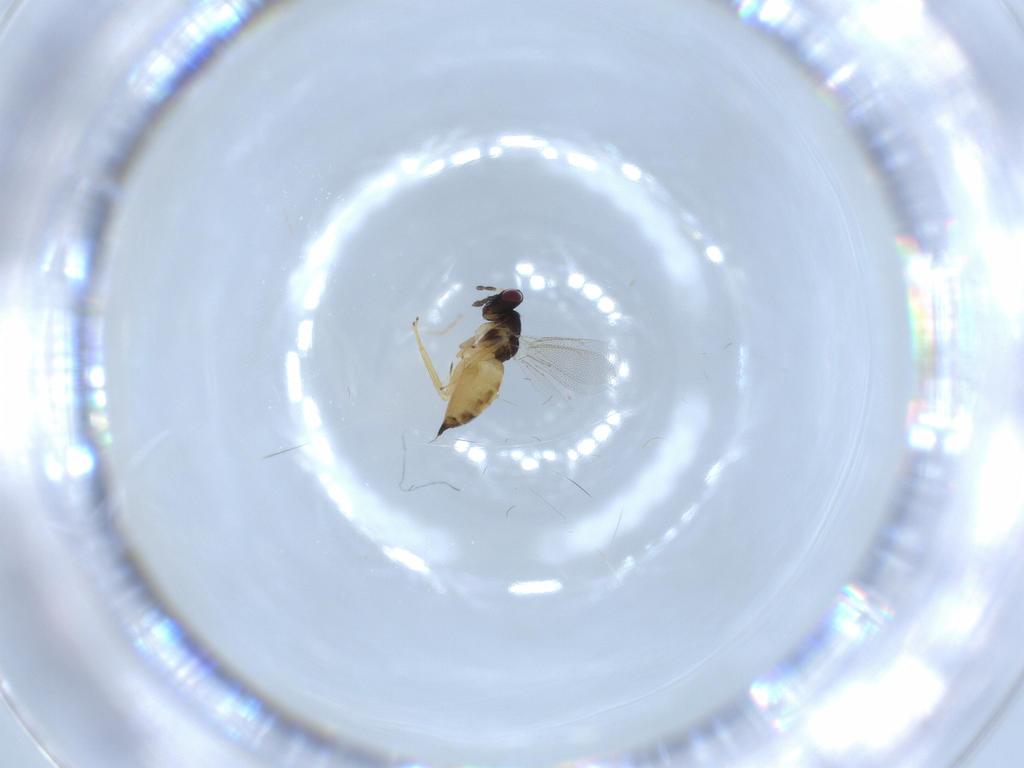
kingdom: Animalia
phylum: Arthropoda
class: Insecta
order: Hymenoptera
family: Eulophidae
